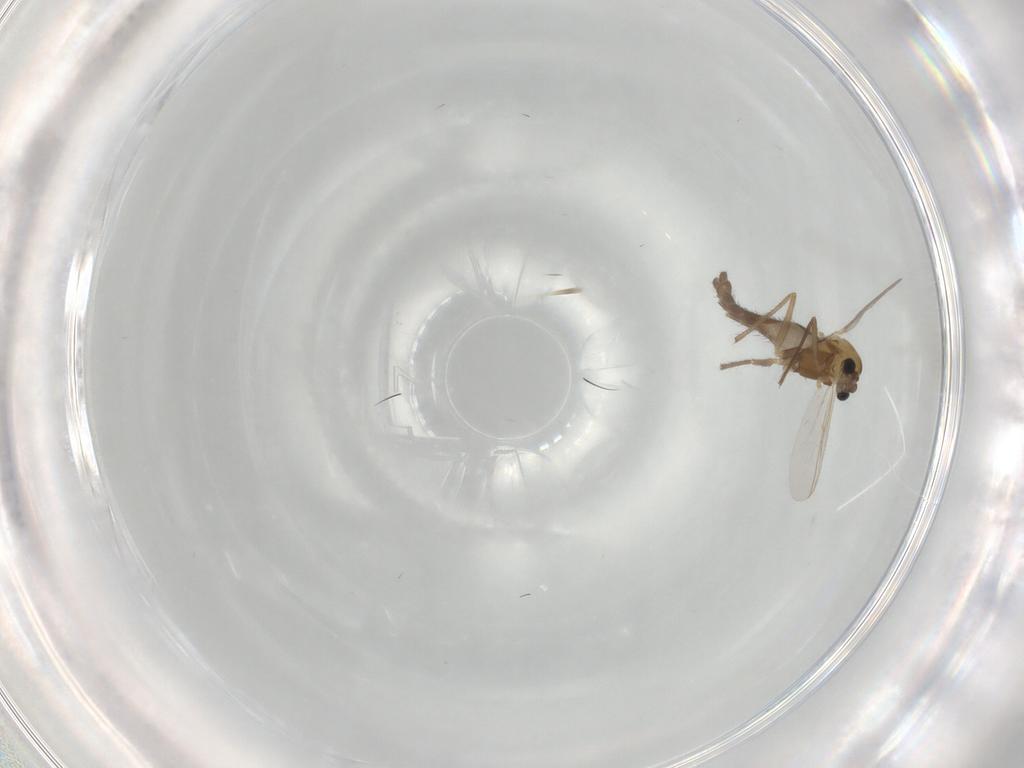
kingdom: Animalia
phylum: Arthropoda
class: Insecta
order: Diptera
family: Chironomidae
